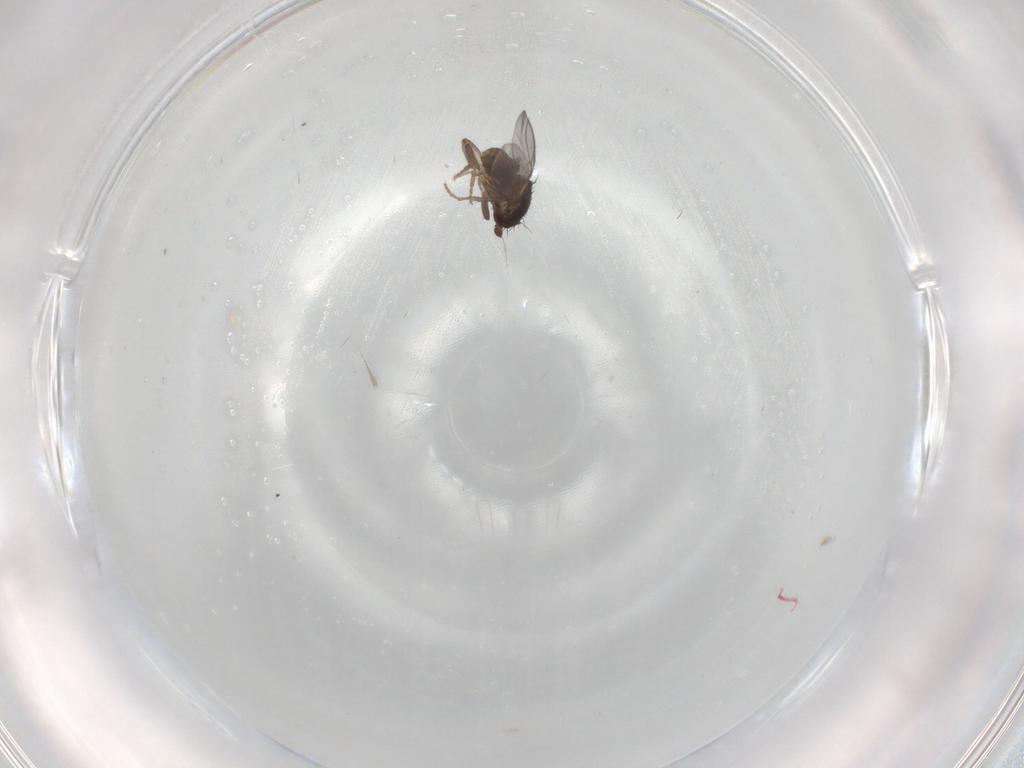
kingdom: Animalia
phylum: Arthropoda
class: Insecta
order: Diptera
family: Sphaeroceridae
